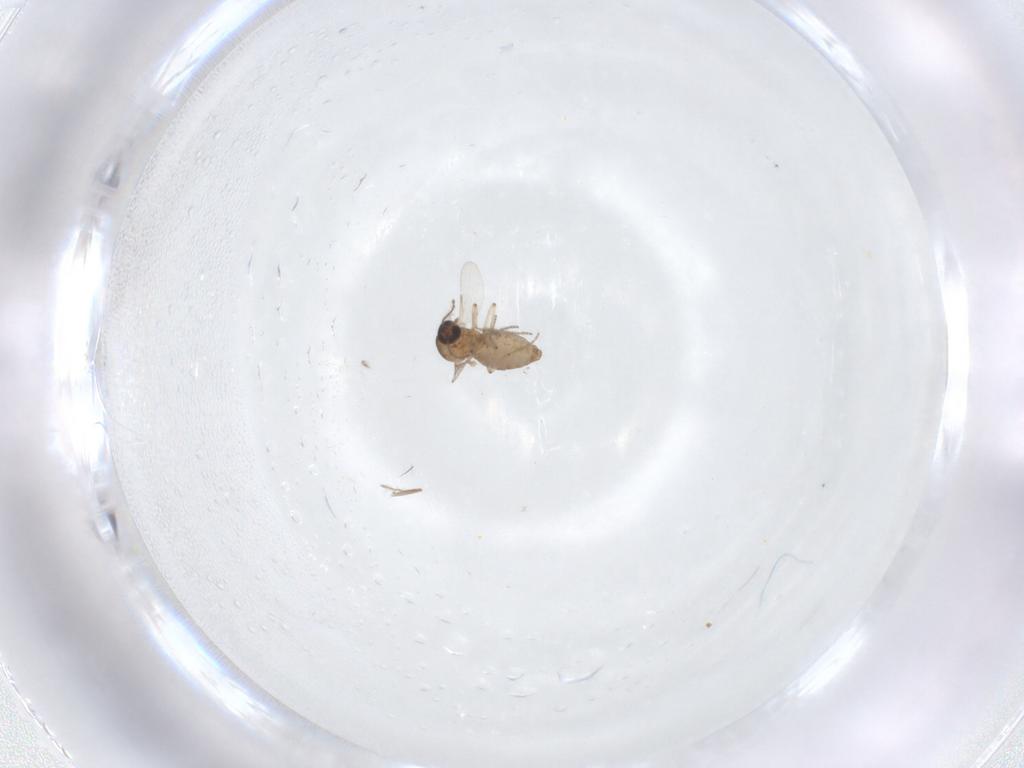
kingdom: Animalia
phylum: Arthropoda
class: Insecta
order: Diptera
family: Cecidomyiidae
